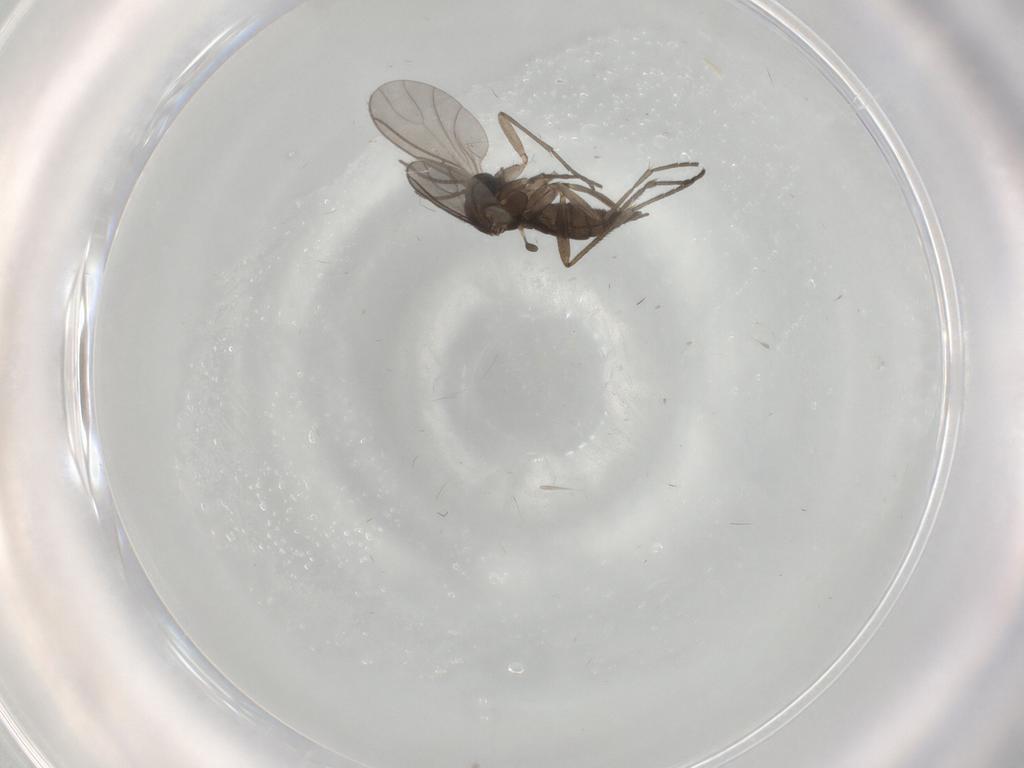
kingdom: Animalia
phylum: Arthropoda
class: Insecta
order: Diptera
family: Sciaridae
